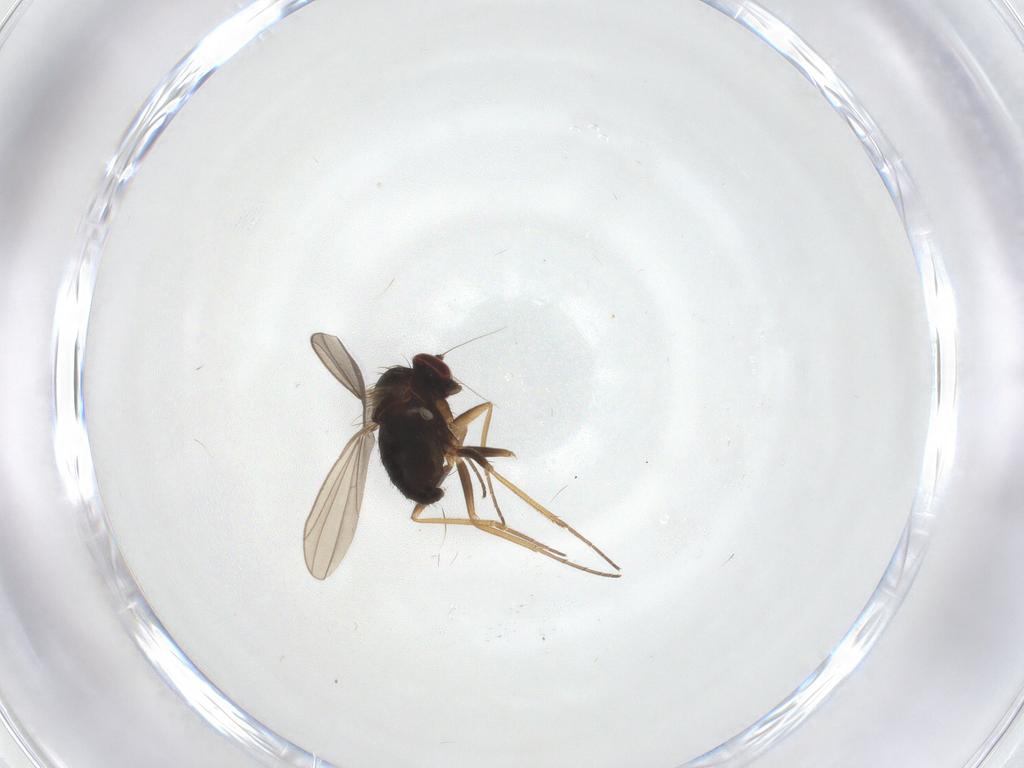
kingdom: Animalia
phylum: Arthropoda
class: Insecta
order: Diptera
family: Dolichopodidae
